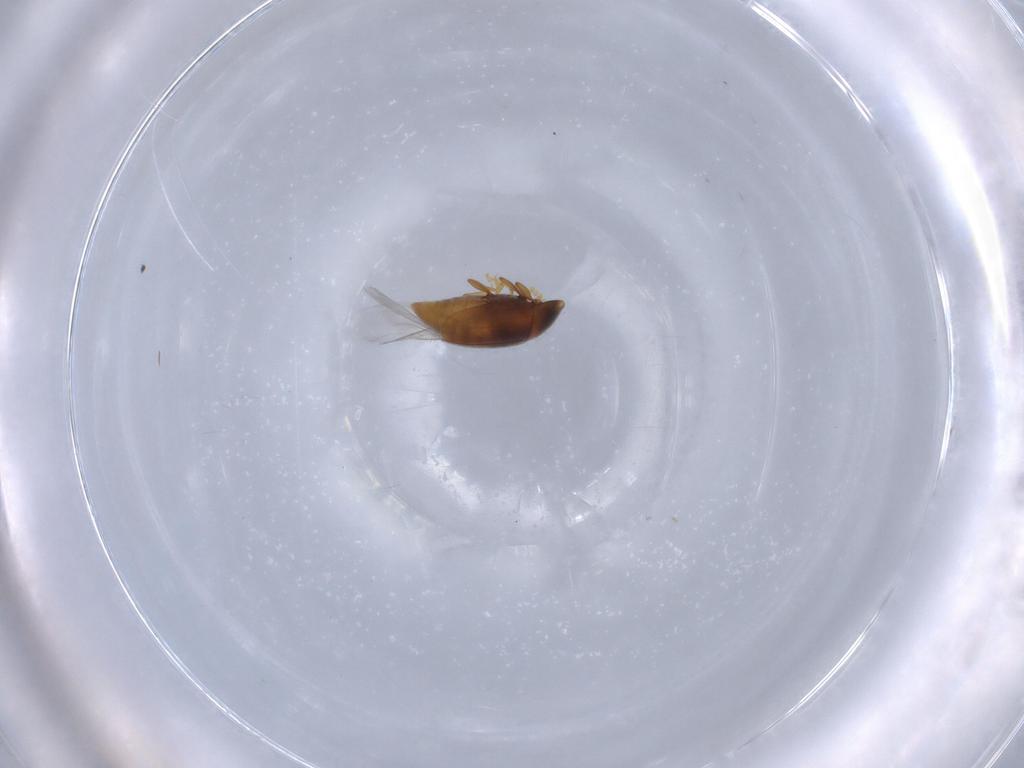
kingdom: Animalia
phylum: Arthropoda
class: Insecta
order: Coleoptera
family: Corylophidae
